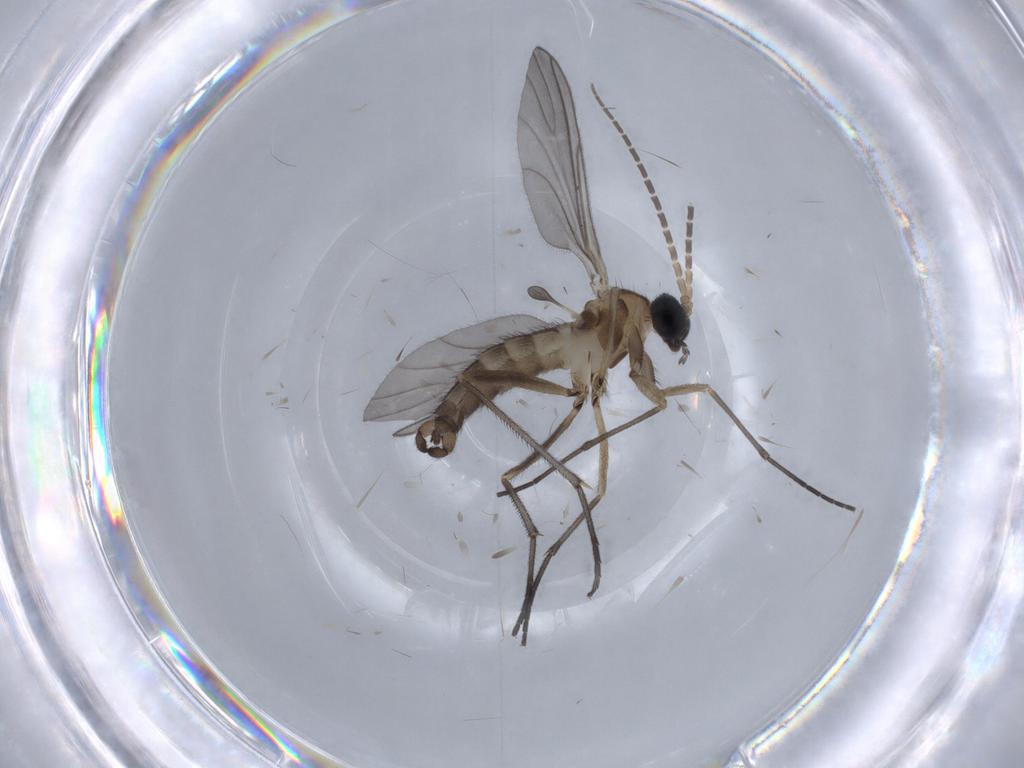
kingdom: Animalia
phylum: Arthropoda
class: Insecta
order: Diptera
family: Sciaridae
